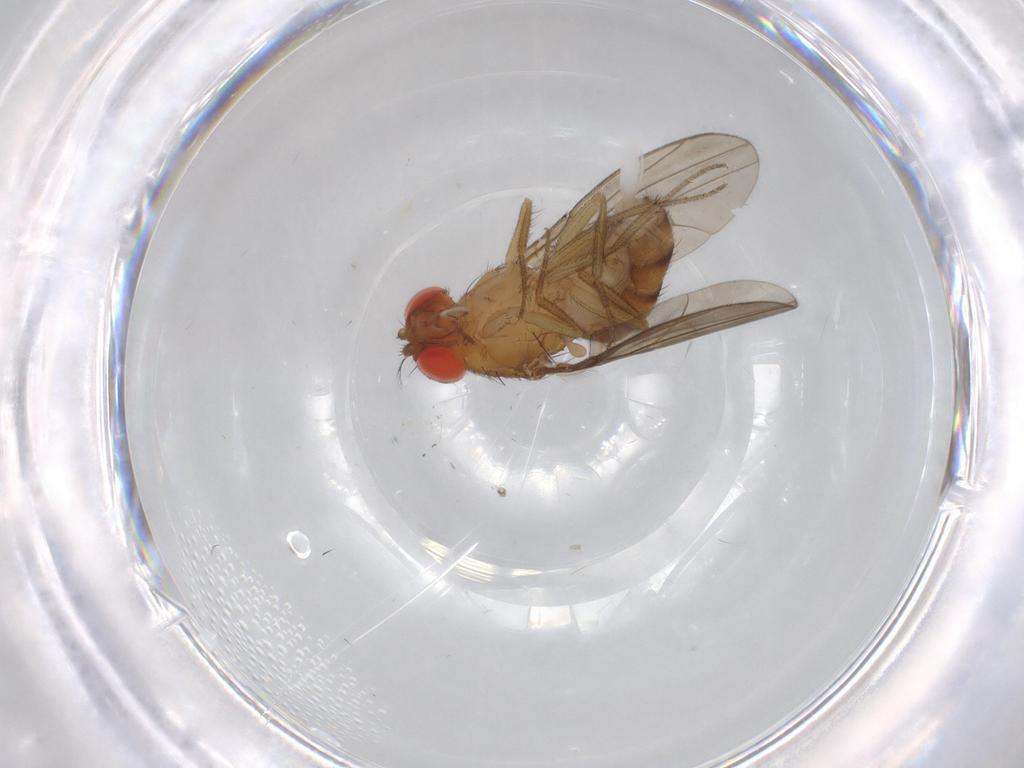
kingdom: Animalia
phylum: Arthropoda
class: Insecta
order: Diptera
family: Drosophilidae
